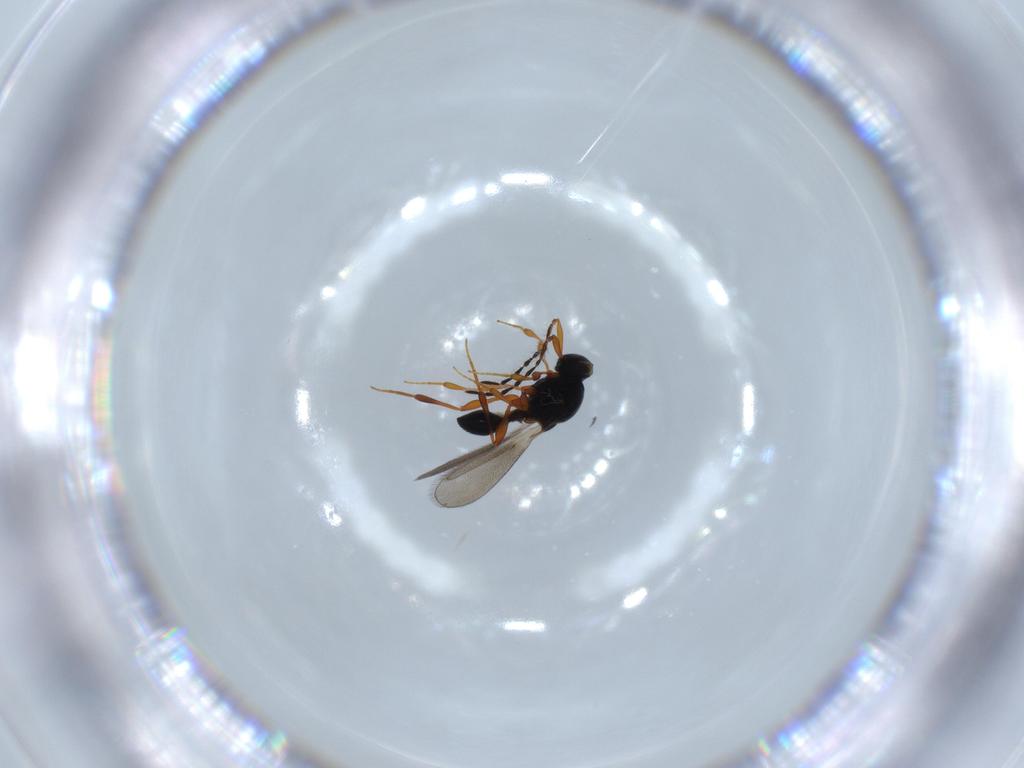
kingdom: Animalia
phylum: Arthropoda
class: Insecta
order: Hymenoptera
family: Platygastridae
